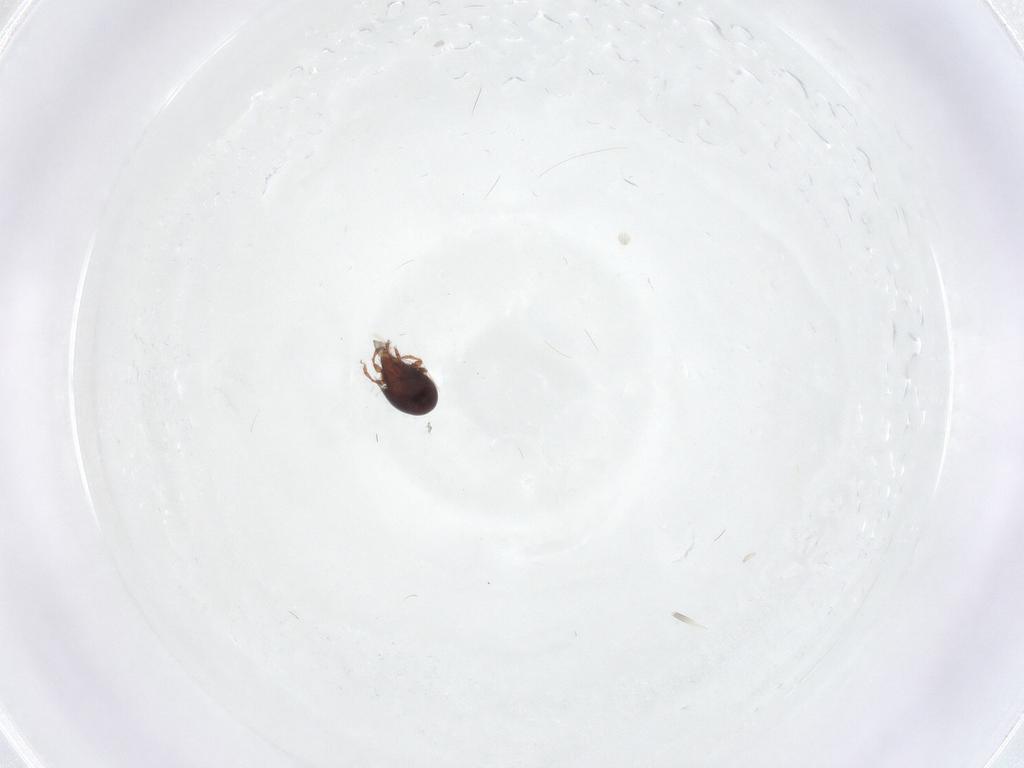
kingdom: Animalia
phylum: Arthropoda
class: Arachnida
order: Sarcoptiformes
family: Ceratozetidae
